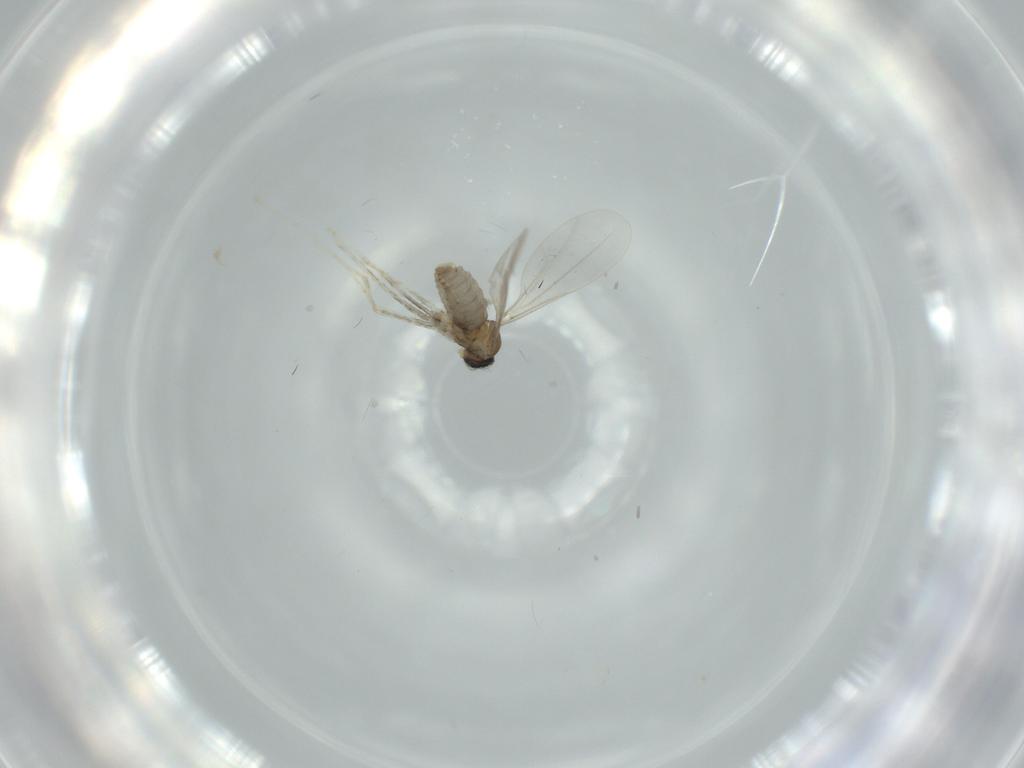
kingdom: Animalia
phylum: Arthropoda
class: Insecta
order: Diptera
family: Cecidomyiidae
